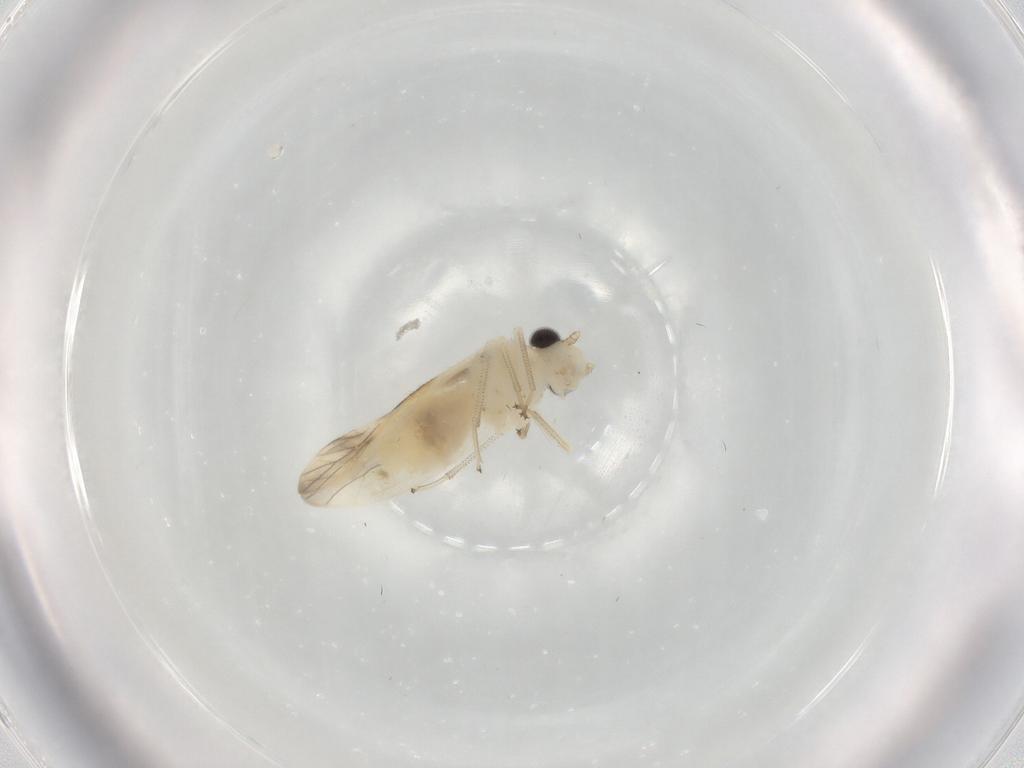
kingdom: Animalia
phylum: Arthropoda
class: Insecta
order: Psocodea
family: Caeciliusidae
